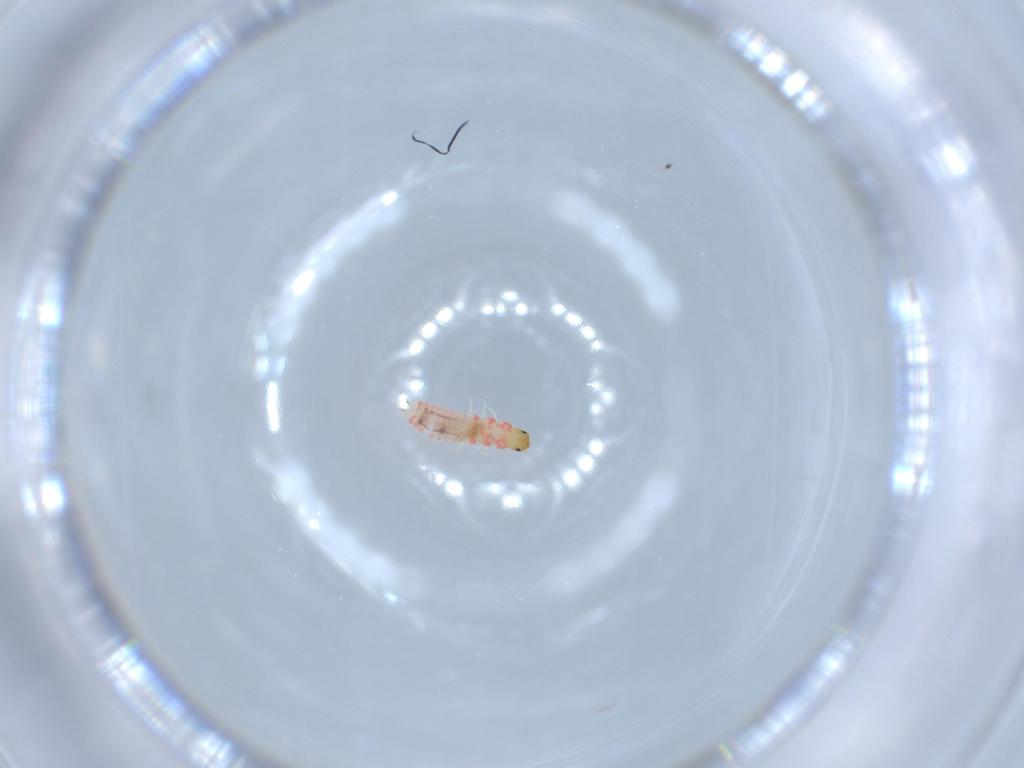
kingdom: Animalia
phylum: Arthropoda
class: Insecta
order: Coleoptera
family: Melyridae
